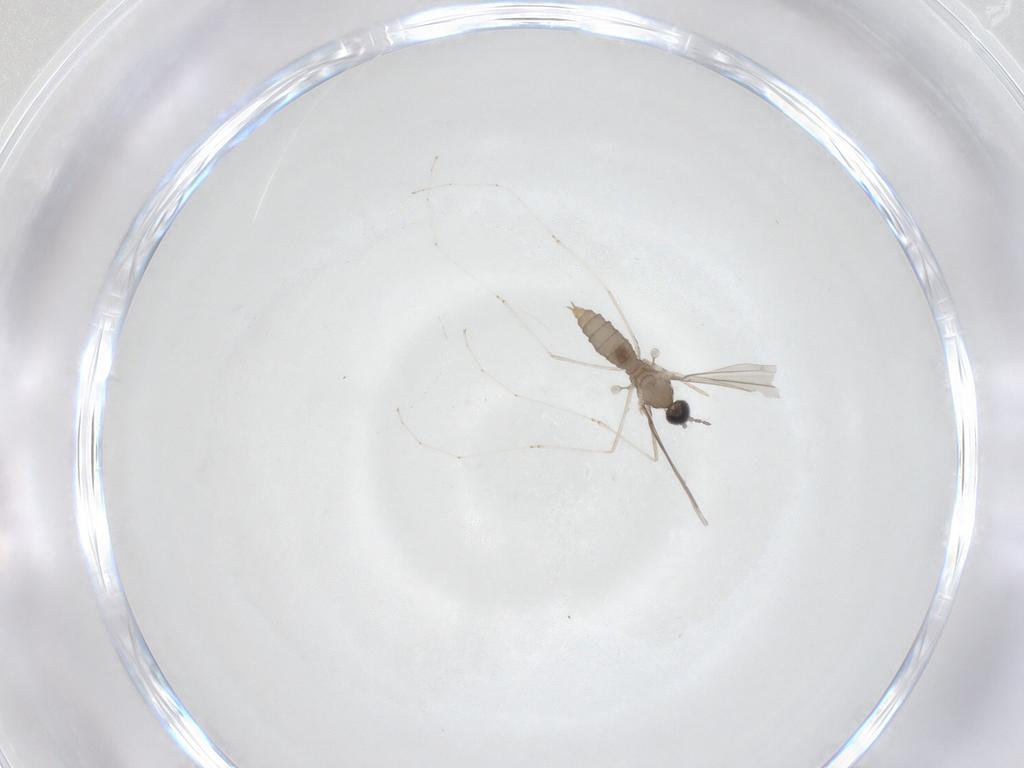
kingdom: Animalia
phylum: Arthropoda
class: Insecta
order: Diptera
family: Cecidomyiidae
